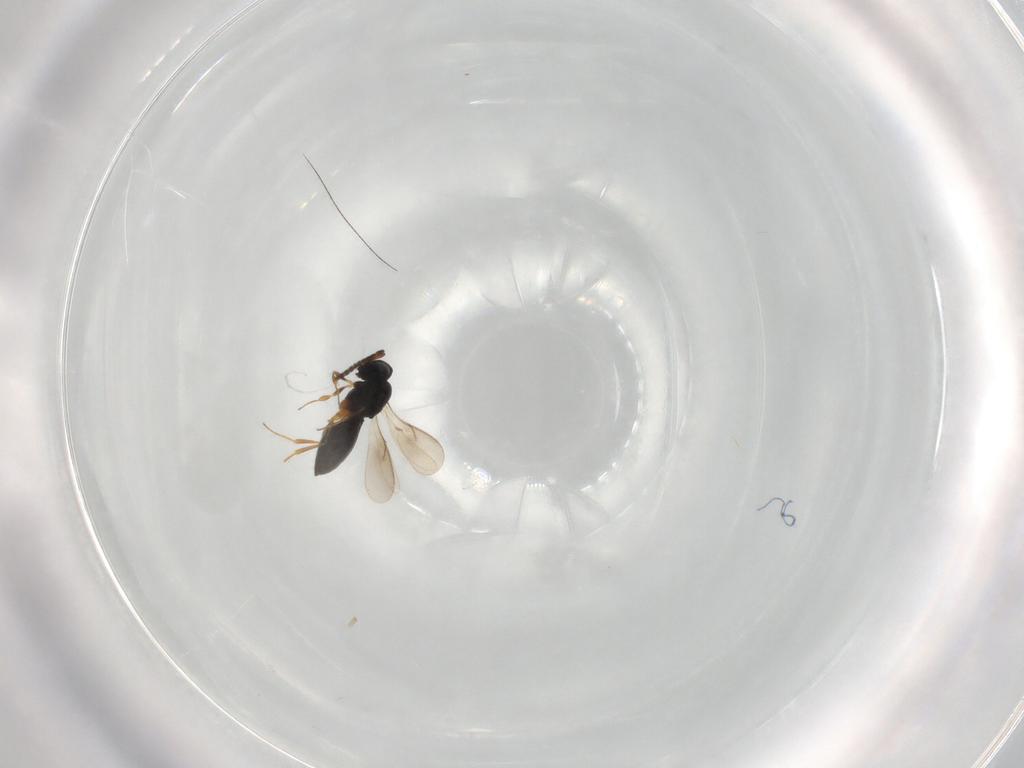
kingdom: Animalia
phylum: Arthropoda
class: Insecta
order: Hymenoptera
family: Scelionidae
